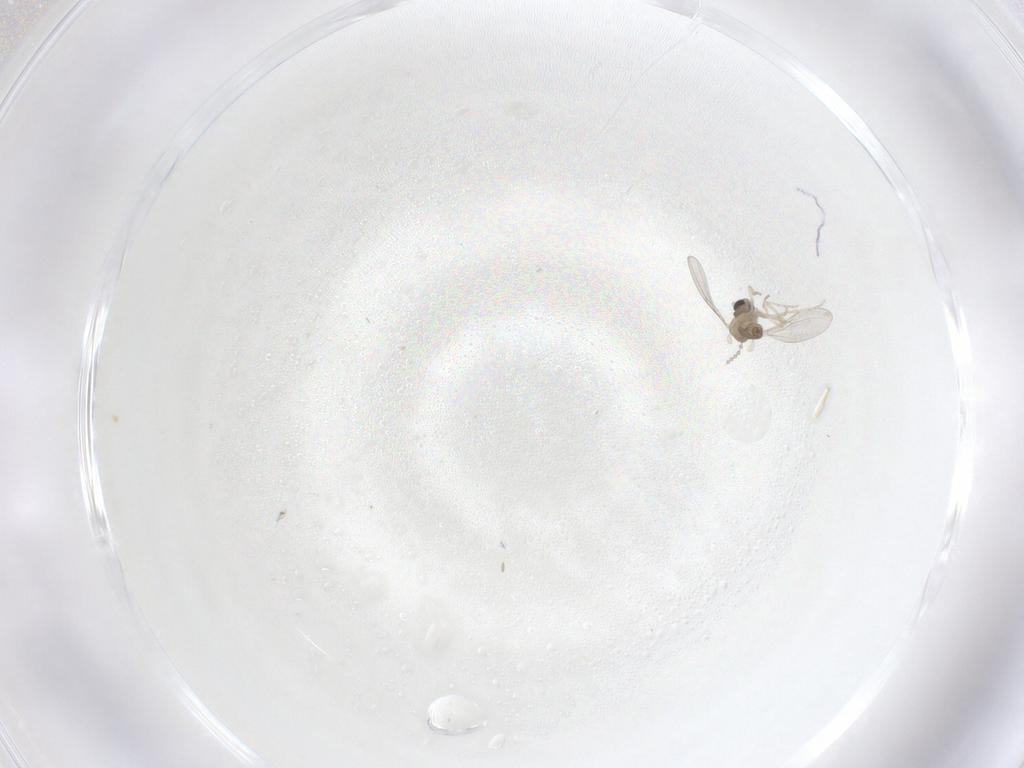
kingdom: Animalia
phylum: Arthropoda
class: Insecta
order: Diptera
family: Cecidomyiidae
